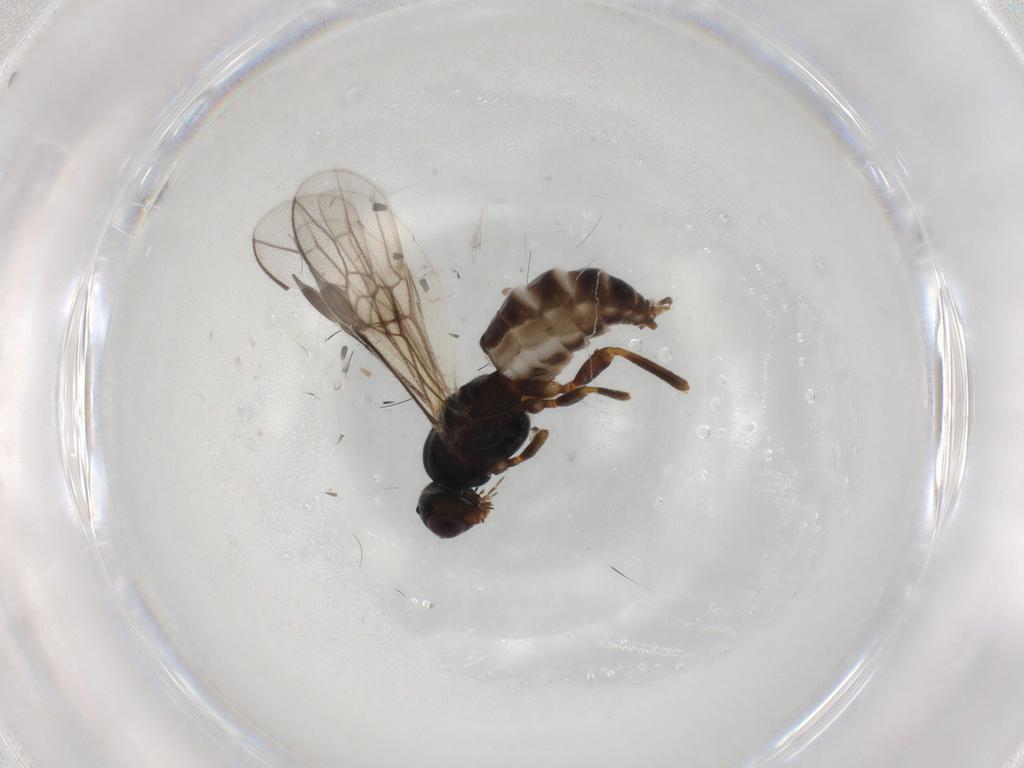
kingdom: Animalia
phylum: Arthropoda
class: Insecta
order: Hymenoptera
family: Braconidae
